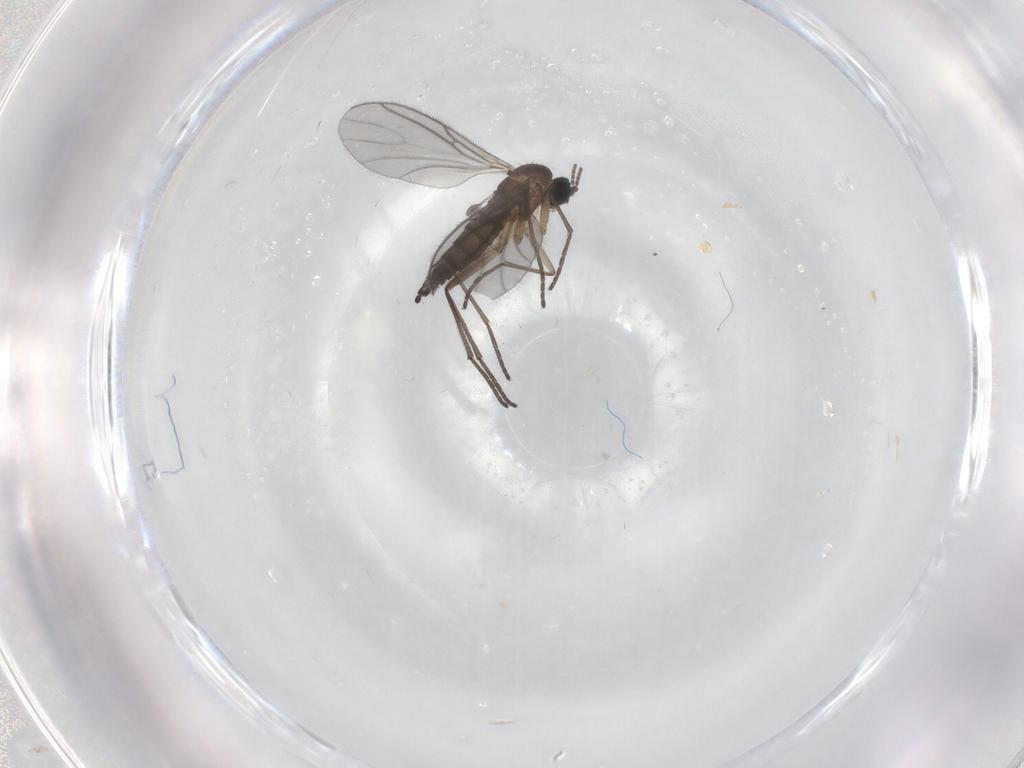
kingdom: Animalia
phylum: Arthropoda
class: Insecta
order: Diptera
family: Sciaridae
